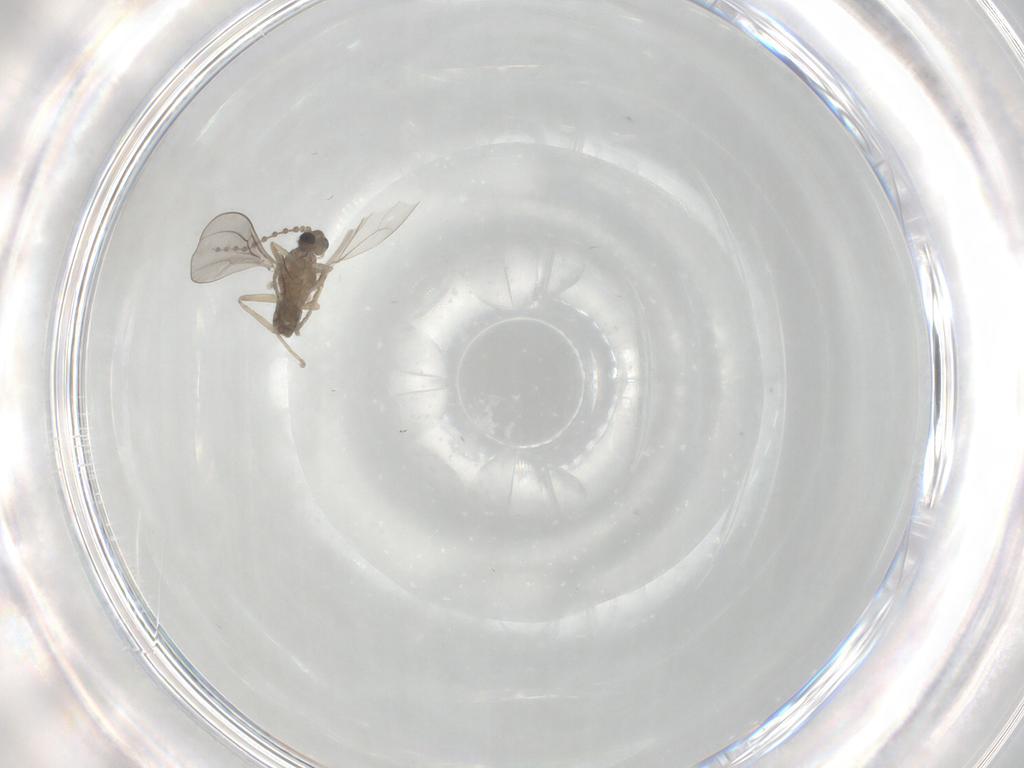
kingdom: Animalia
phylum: Arthropoda
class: Insecta
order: Diptera
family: Cecidomyiidae
